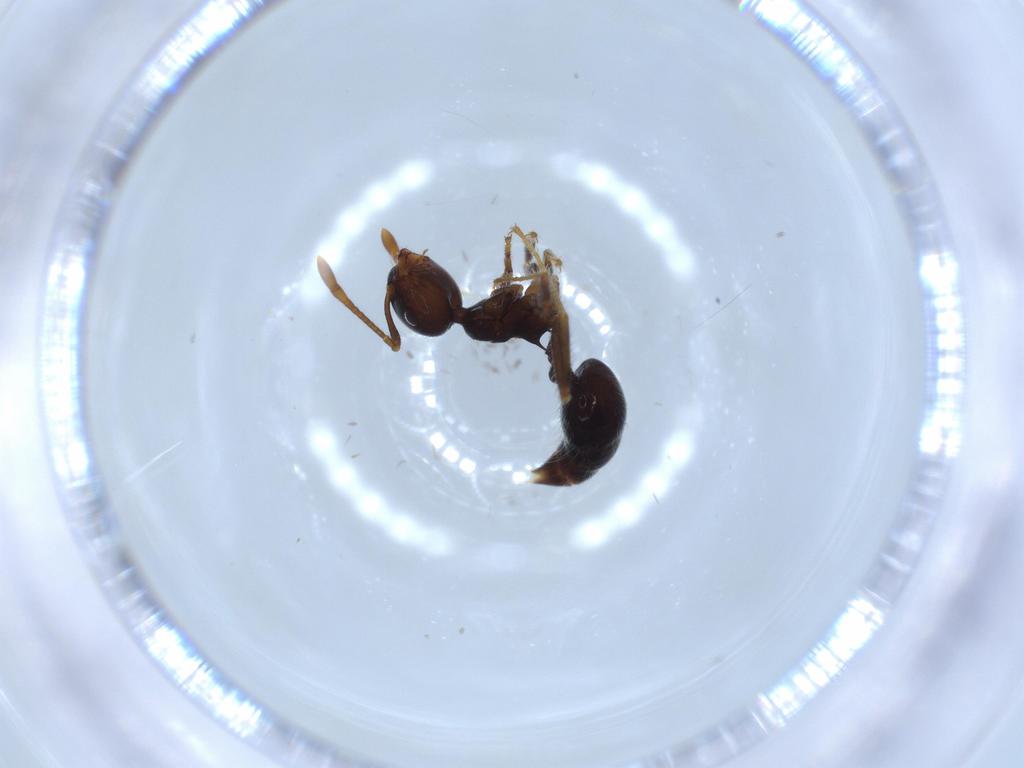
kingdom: Animalia
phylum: Arthropoda
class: Insecta
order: Hymenoptera
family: Formicidae
